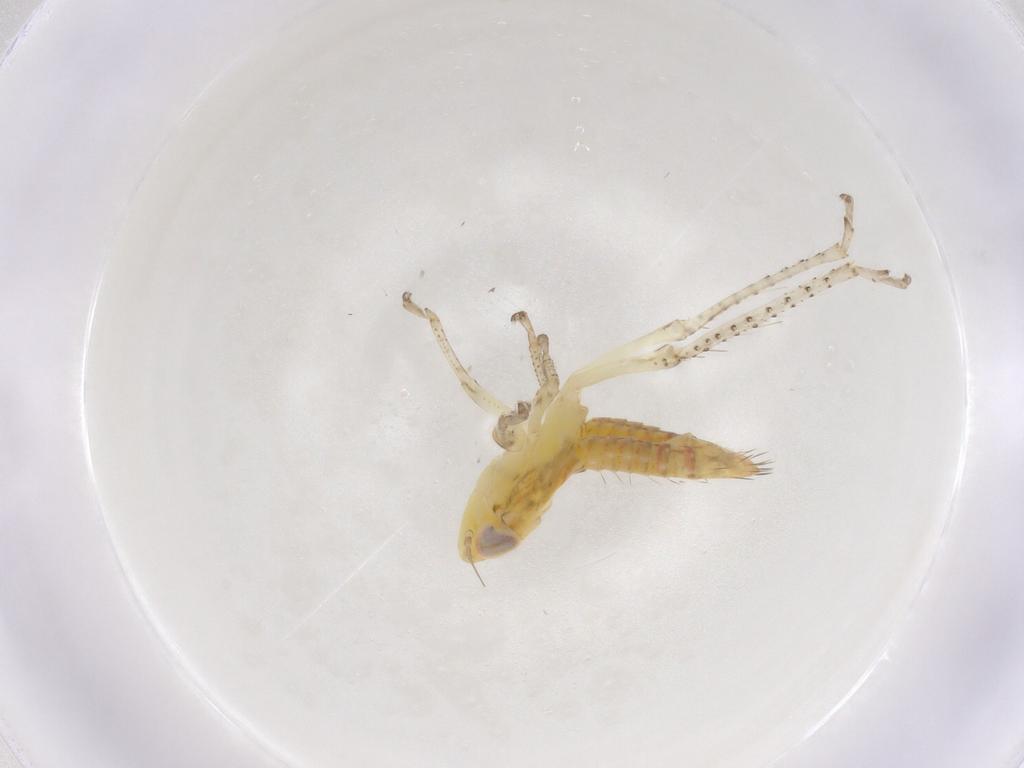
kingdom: Animalia
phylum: Arthropoda
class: Insecta
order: Hemiptera
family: Cicadellidae
